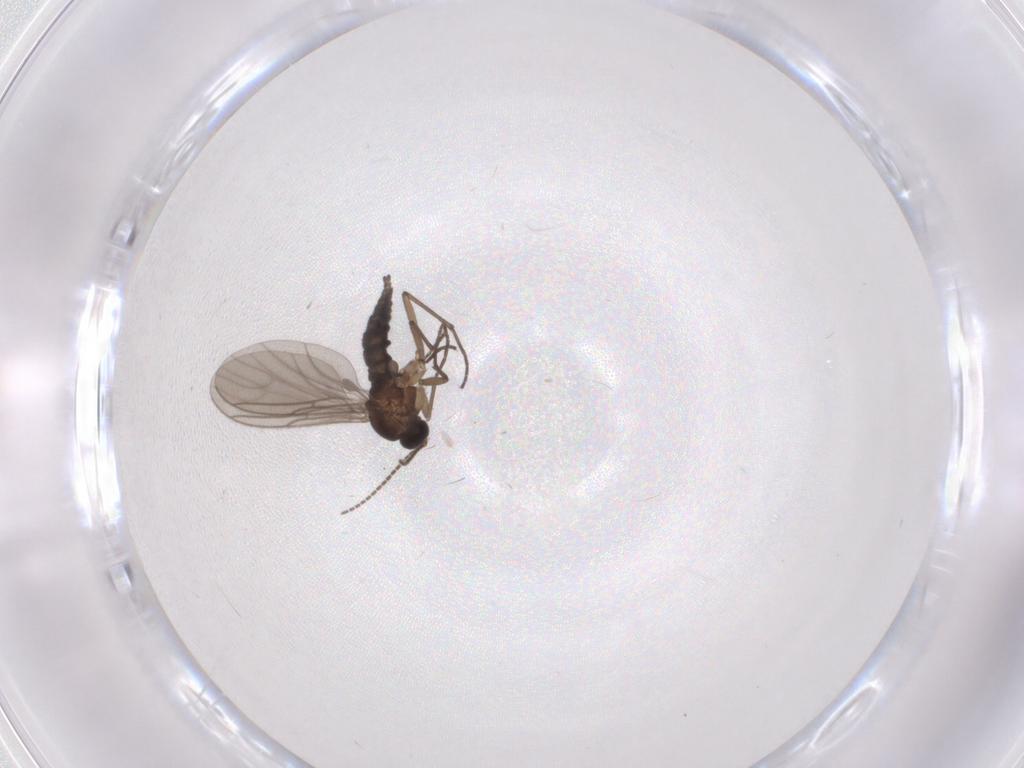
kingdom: Animalia
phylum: Arthropoda
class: Insecta
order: Diptera
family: Sciaridae
